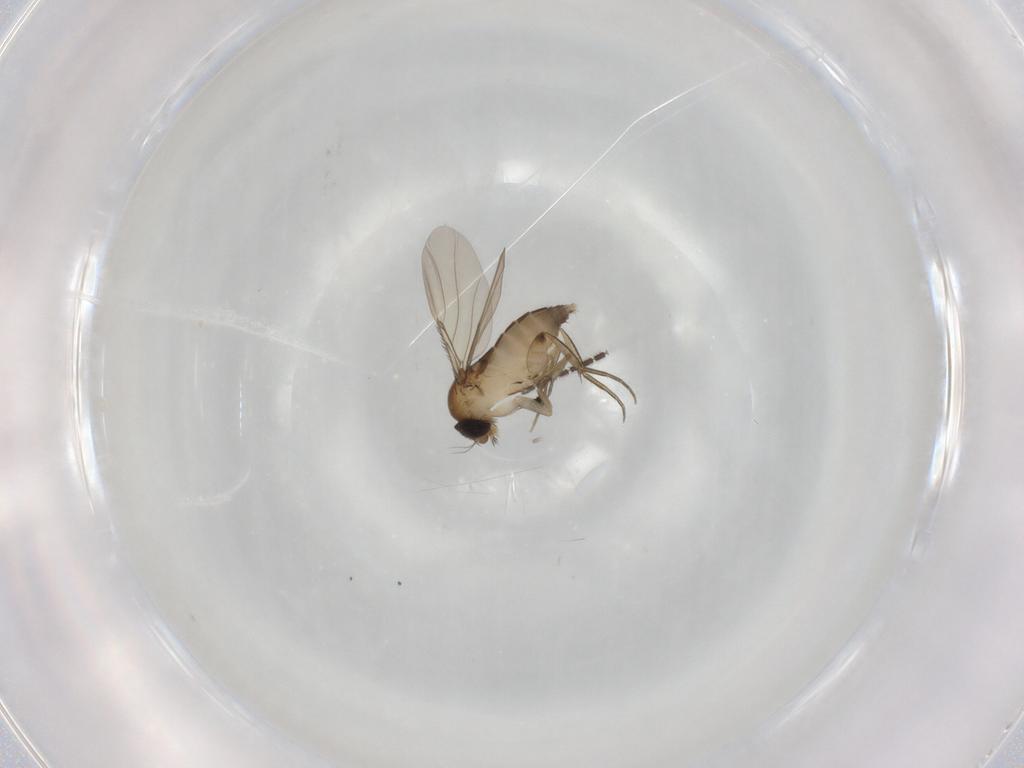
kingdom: Animalia
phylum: Arthropoda
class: Insecta
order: Diptera
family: Phoridae
